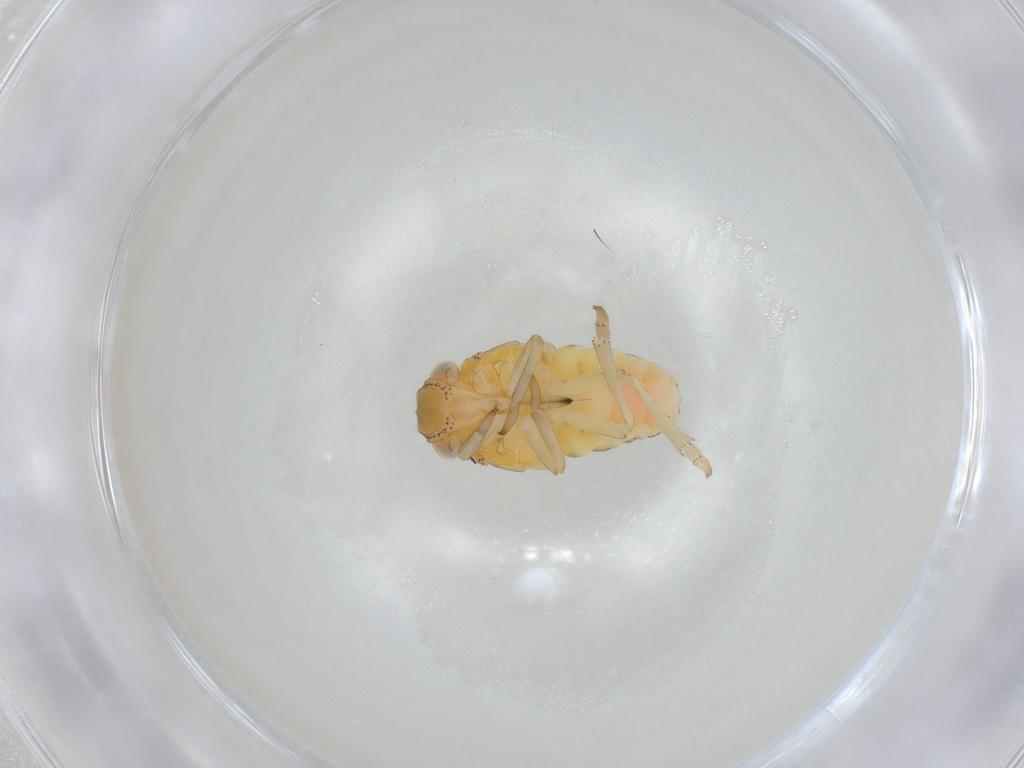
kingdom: Animalia
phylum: Arthropoda
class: Insecta
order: Hemiptera
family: Tropiduchidae
